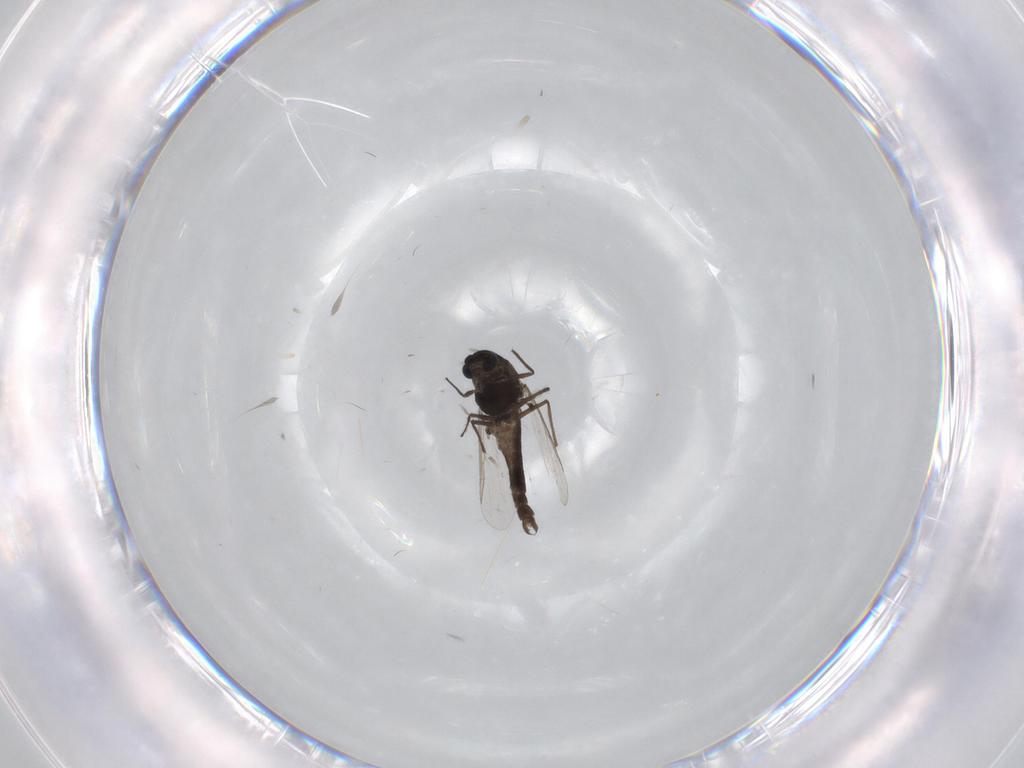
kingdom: Animalia
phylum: Arthropoda
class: Insecta
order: Diptera
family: Chironomidae
